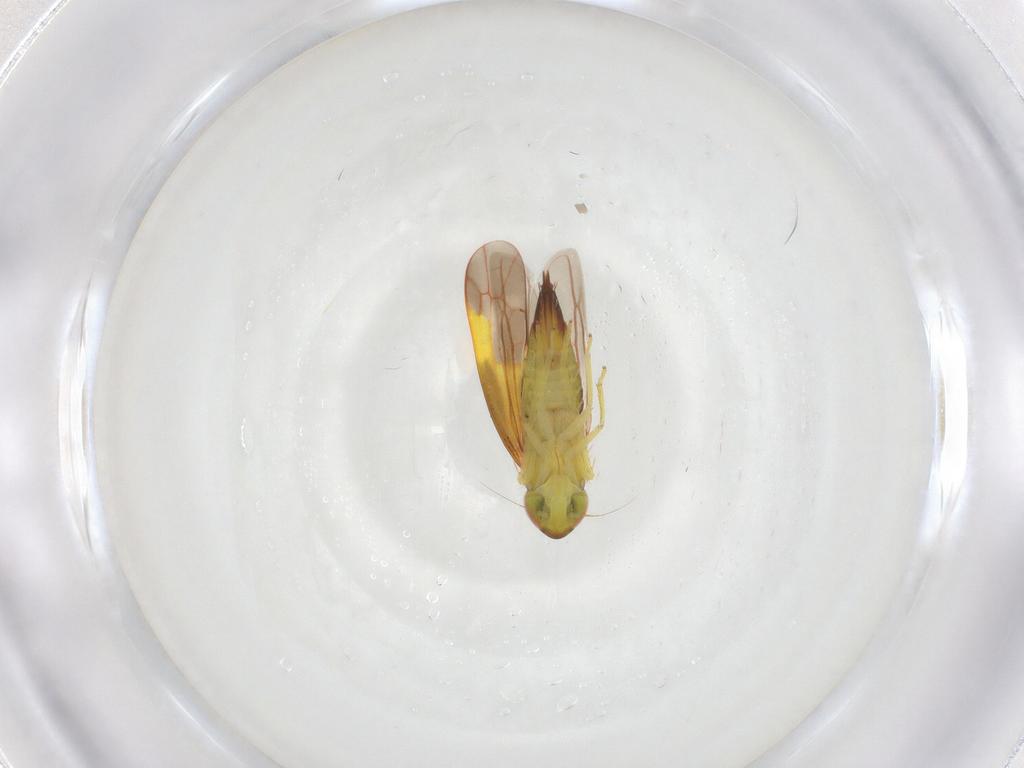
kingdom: Animalia
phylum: Arthropoda
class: Insecta
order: Hemiptera
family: Cicadellidae
